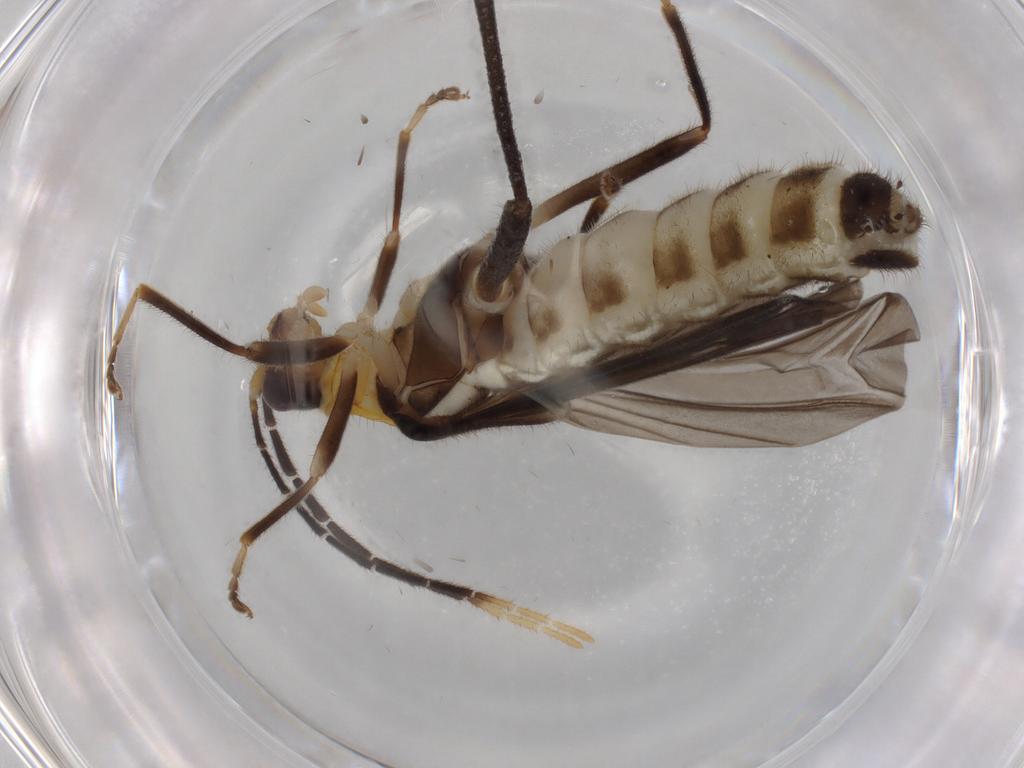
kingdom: Animalia
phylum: Arthropoda
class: Insecta
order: Coleoptera
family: Cantharidae
